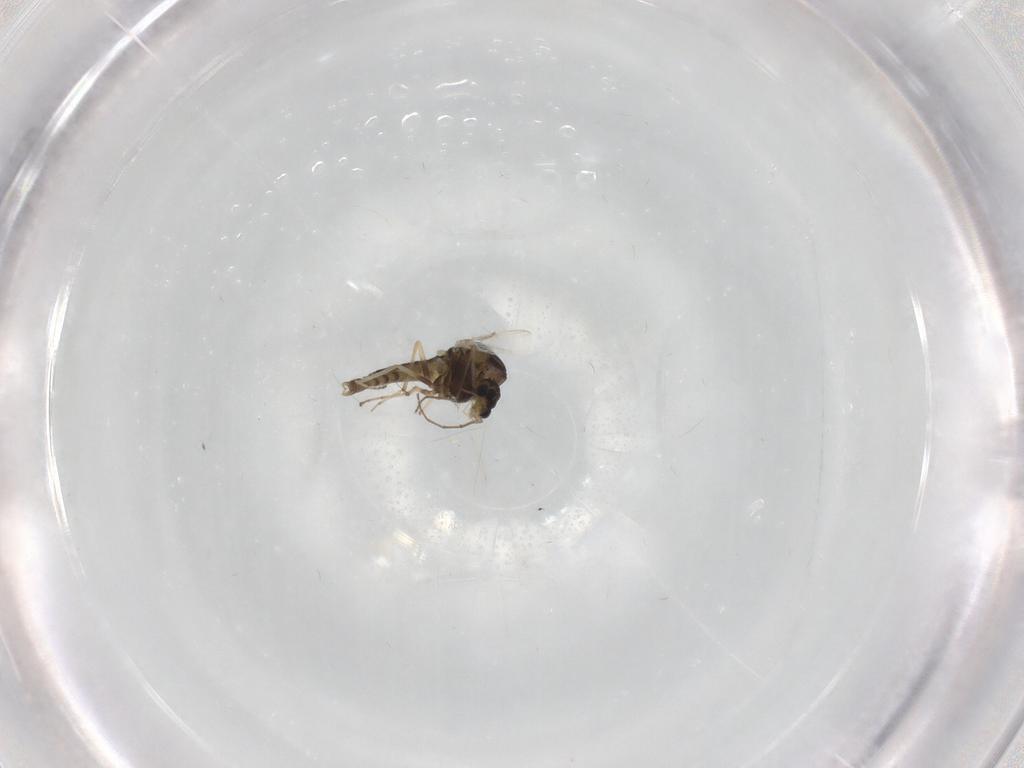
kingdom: Animalia
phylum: Arthropoda
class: Insecta
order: Diptera
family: Chironomidae
